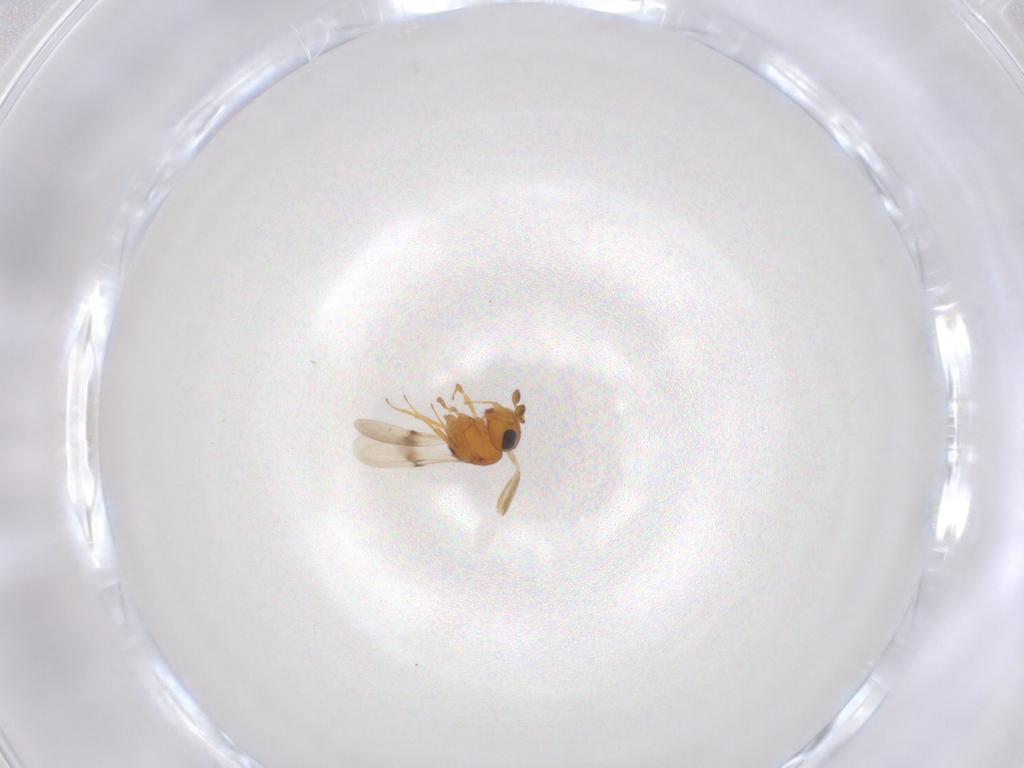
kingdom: Animalia
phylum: Arthropoda
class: Insecta
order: Hymenoptera
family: Scelionidae
